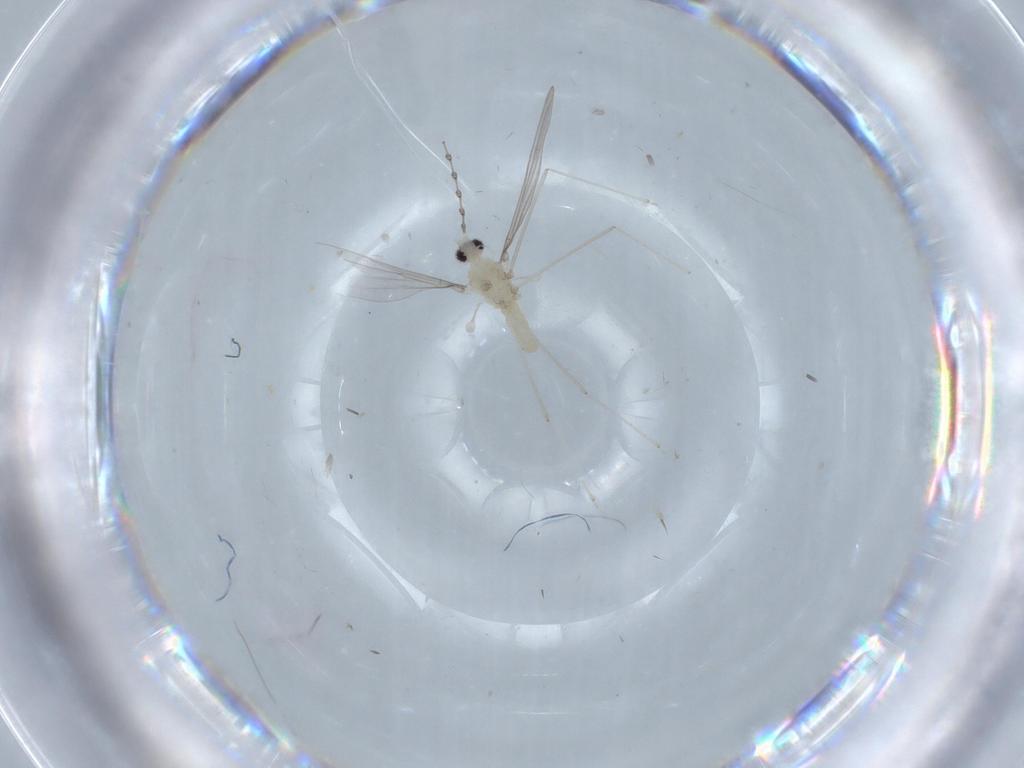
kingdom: Animalia
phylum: Arthropoda
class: Insecta
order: Diptera
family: Cecidomyiidae
